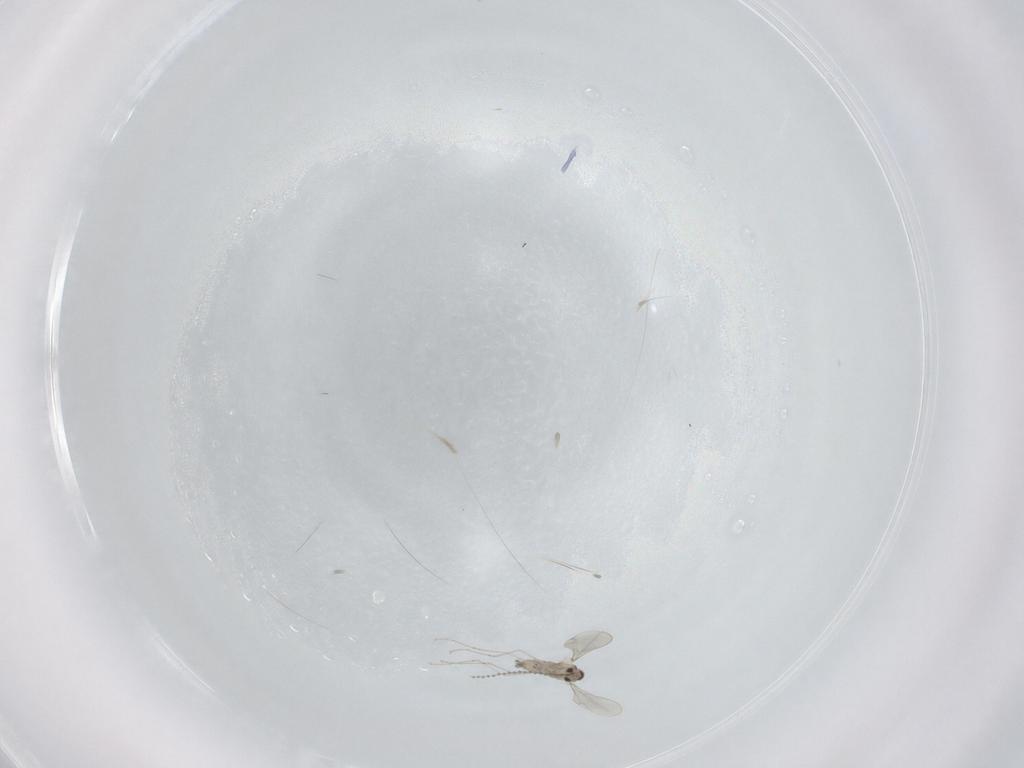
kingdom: Animalia
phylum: Arthropoda
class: Insecta
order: Diptera
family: Cecidomyiidae
